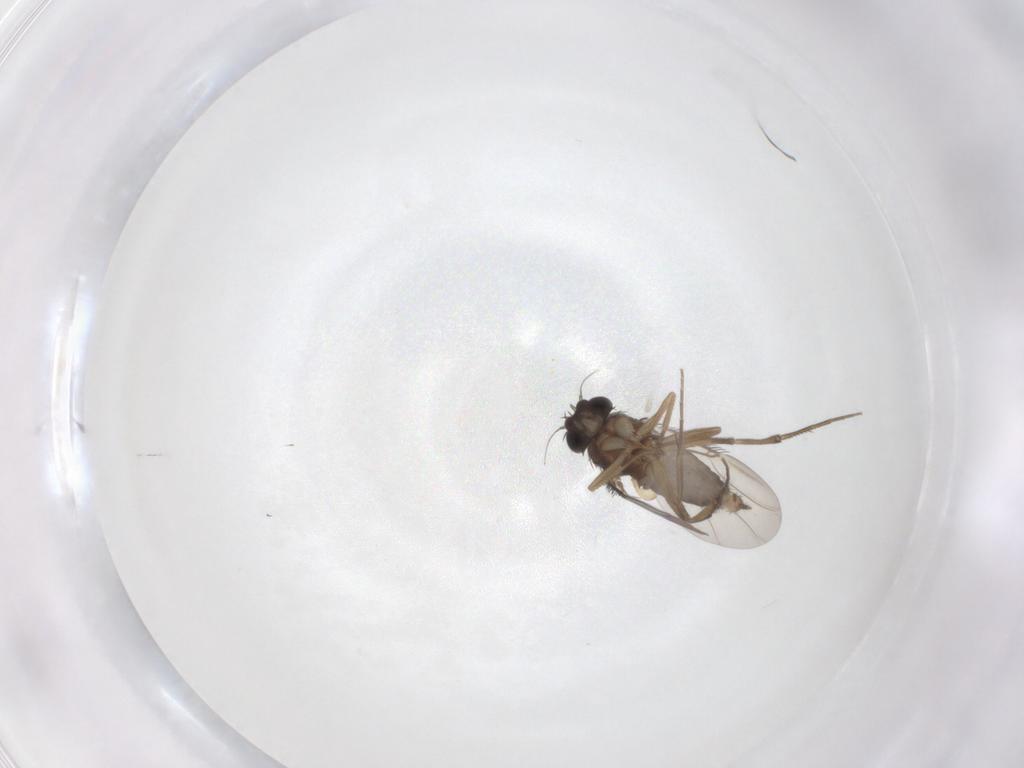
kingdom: Animalia
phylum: Arthropoda
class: Insecta
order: Diptera
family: Phoridae
